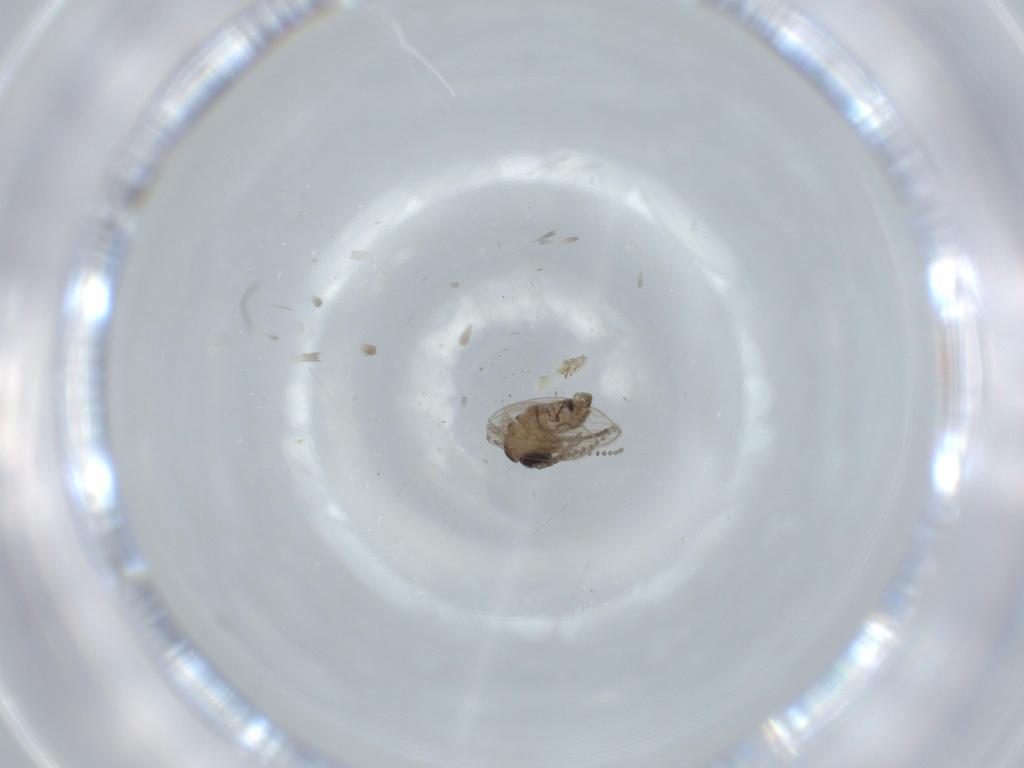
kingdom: Animalia
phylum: Arthropoda
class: Insecta
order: Diptera
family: Psychodidae
